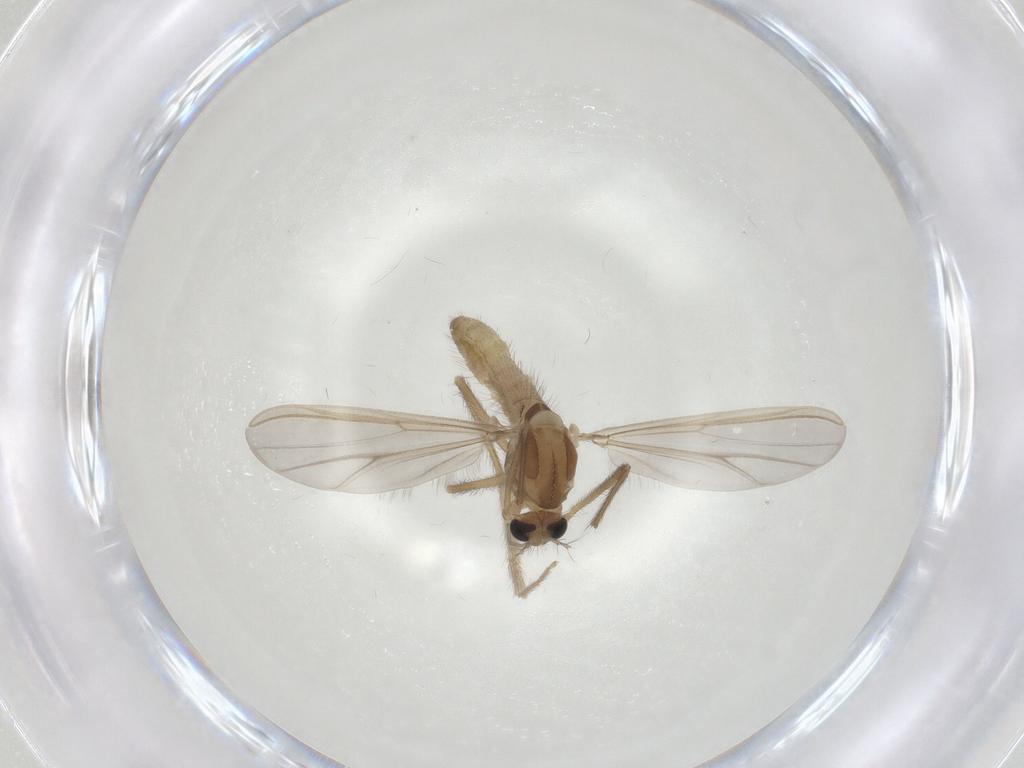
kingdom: Animalia
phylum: Arthropoda
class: Insecta
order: Diptera
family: Chironomidae
